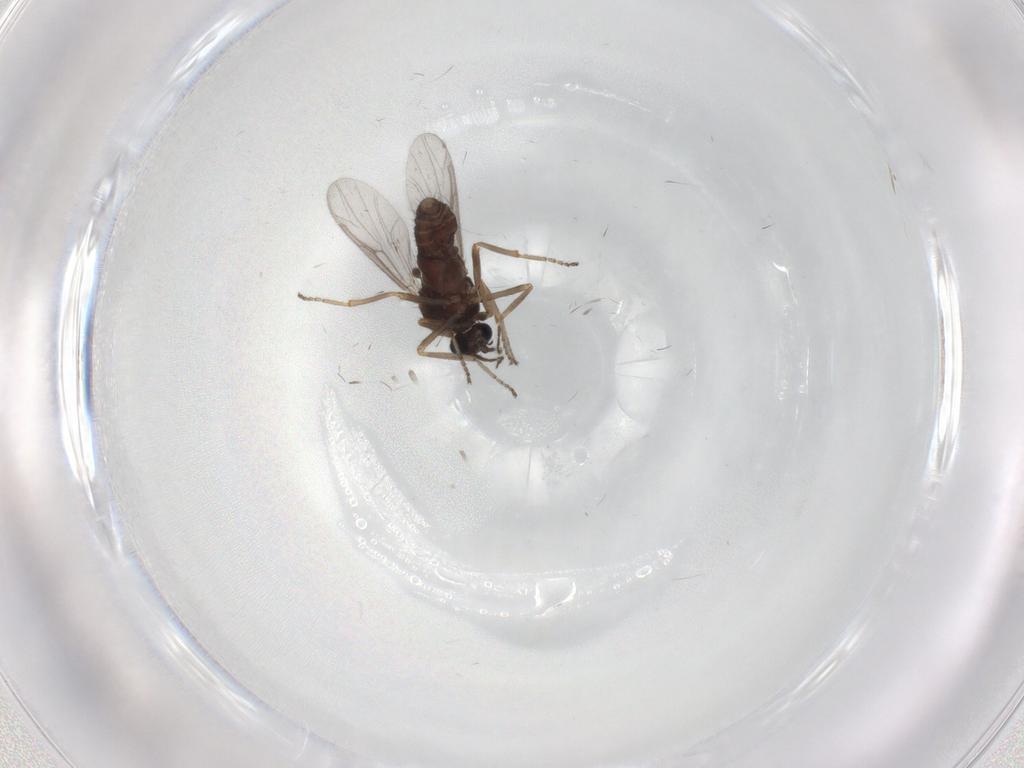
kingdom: Animalia
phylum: Arthropoda
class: Insecta
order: Diptera
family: Ceratopogonidae
